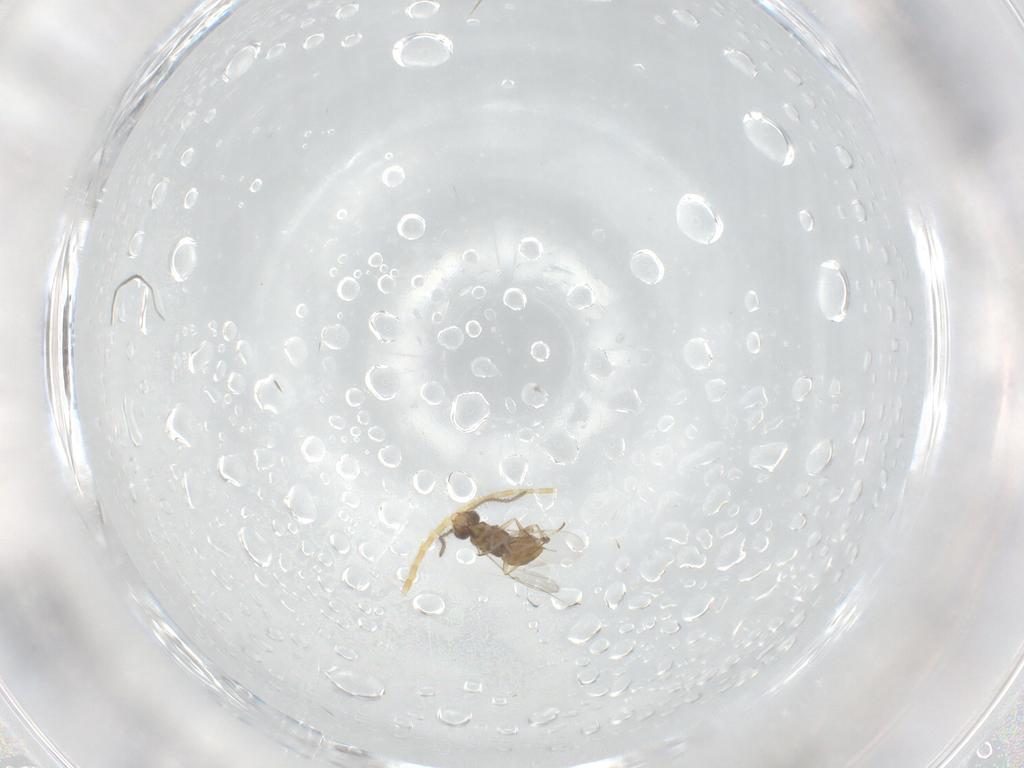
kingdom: Animalia
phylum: Arthropoda
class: Insecta
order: Hymenoptera
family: Encyrtidae
